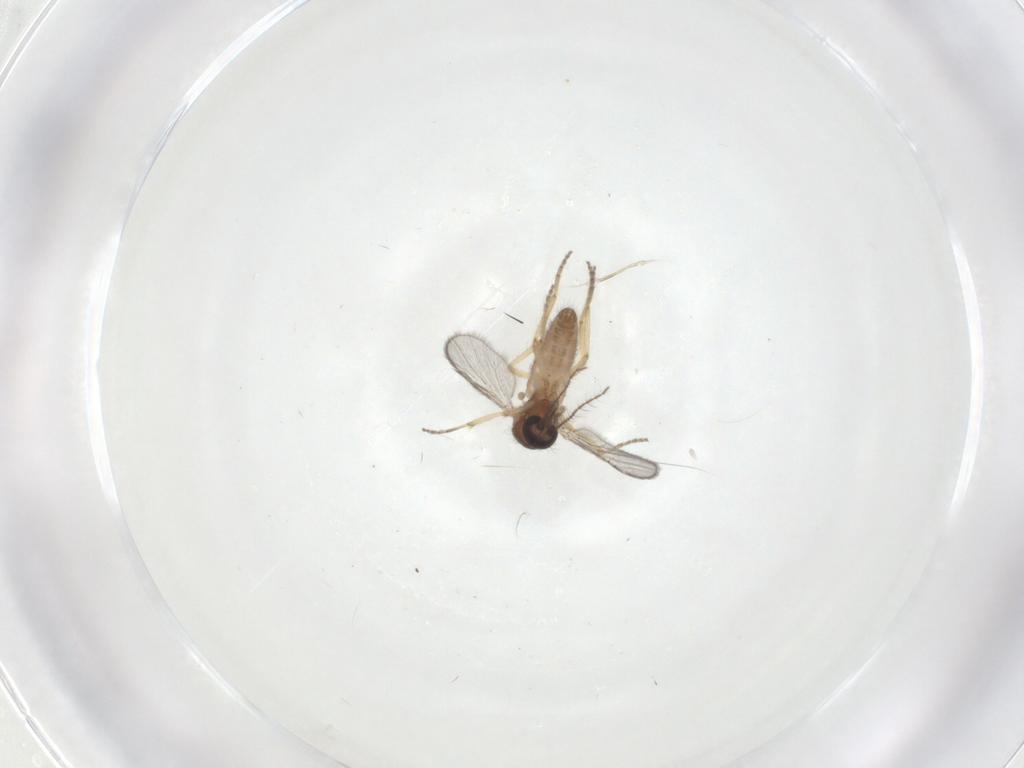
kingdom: Animalia
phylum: Arthropoda
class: Insecta
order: Diptera
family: Ceratopogonidae
